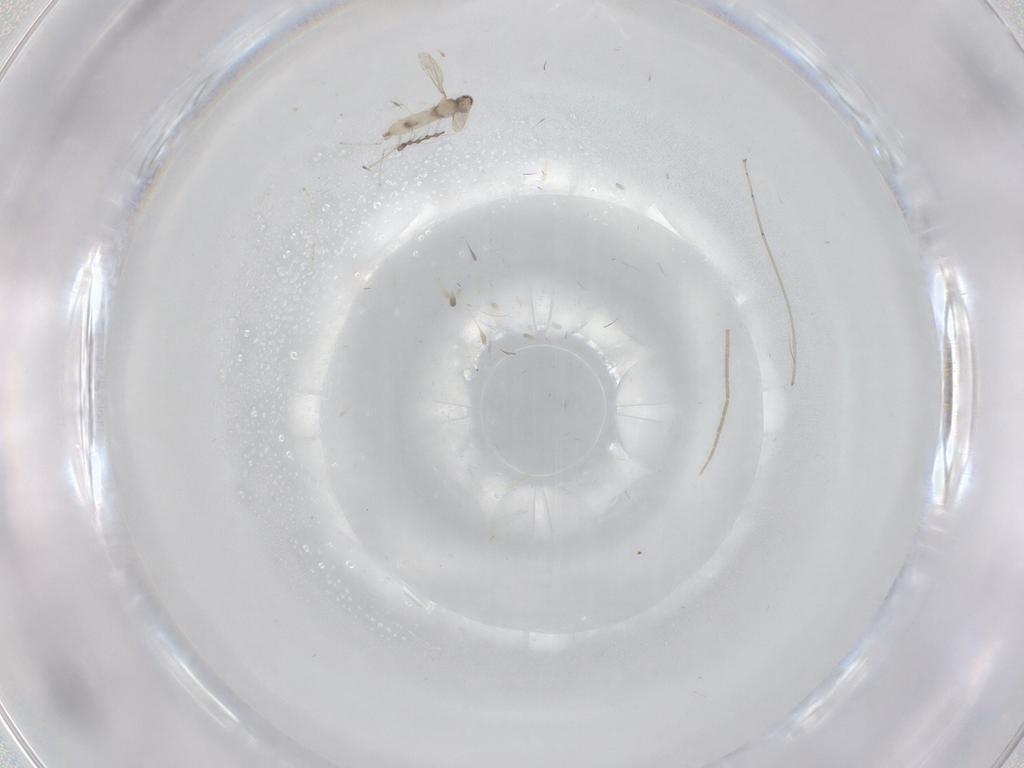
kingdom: Animalia
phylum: Arthropoda
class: Insecta
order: Diptera
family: Cecidomyiidae
